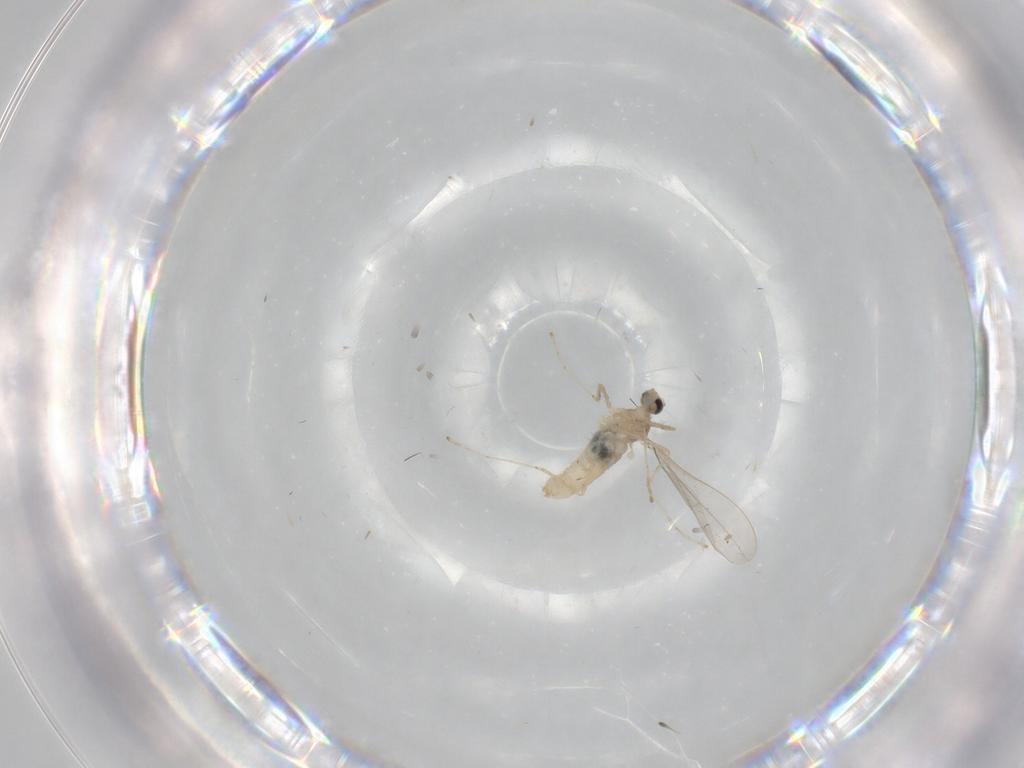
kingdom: Animalia
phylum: Arthropoda
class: Insecta
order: Diptera
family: Cecidomyiidae
